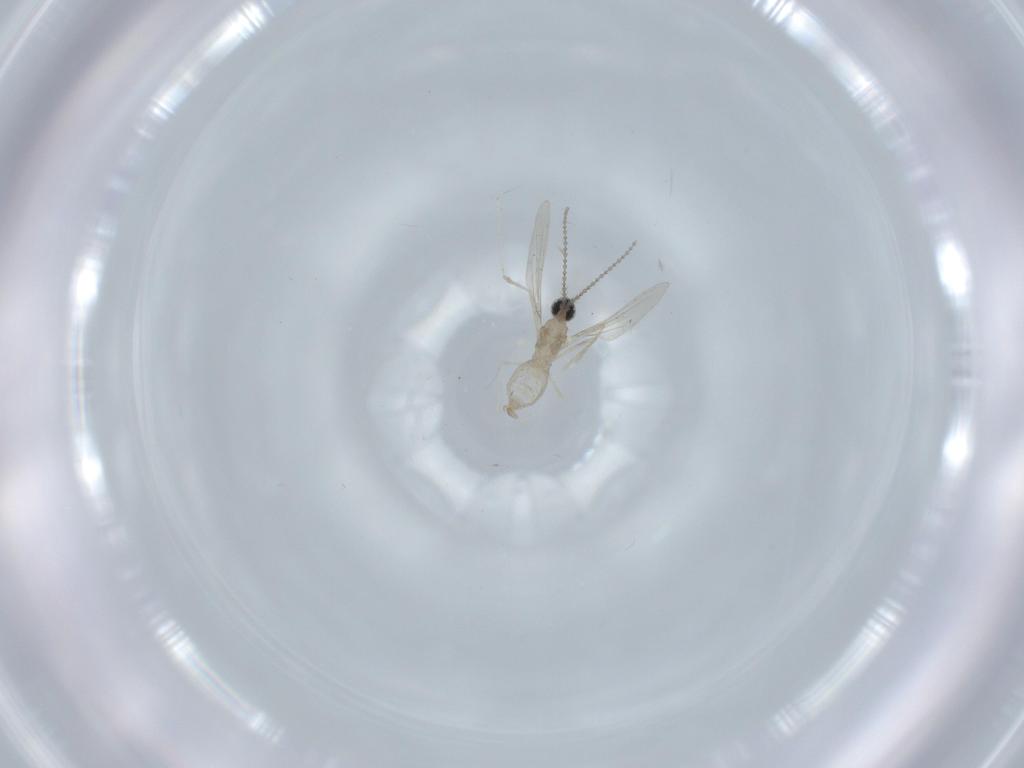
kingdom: Animalia
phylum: Arthropoda
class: Insecta
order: Diptera
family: Cecidomyiidae
